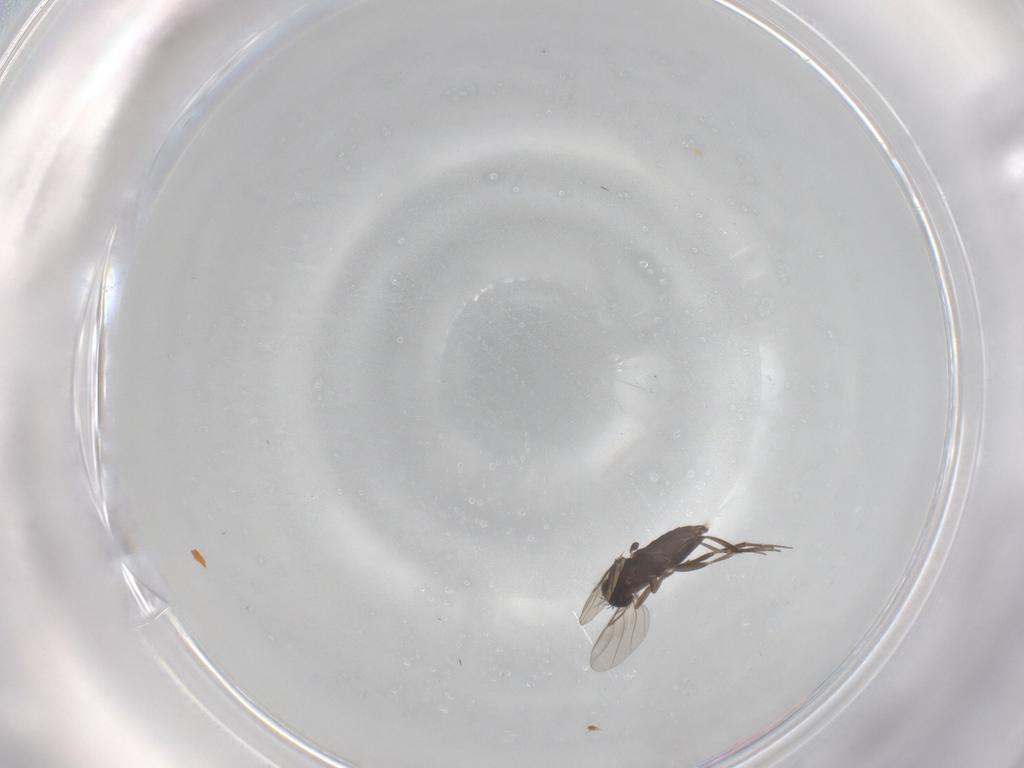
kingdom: Animalia
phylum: Arthropoda
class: Insecta
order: Diptera
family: Phoridae
